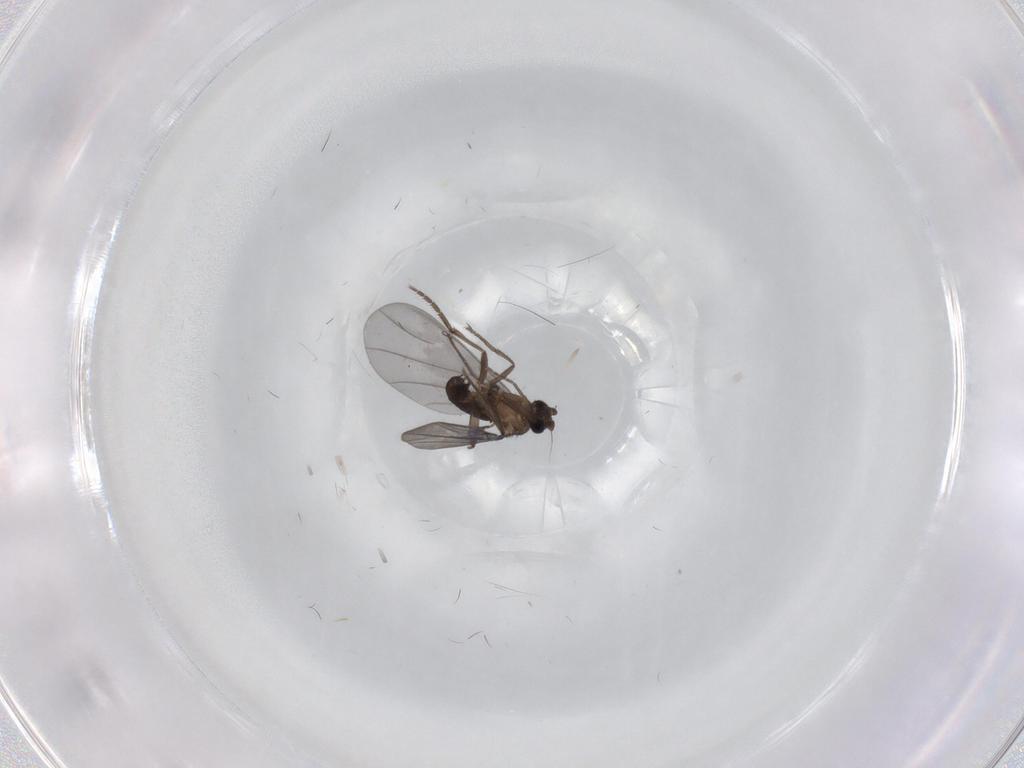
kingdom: Animalia
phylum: Arthropoda
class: Insecta
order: Diptera
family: Phoridae
